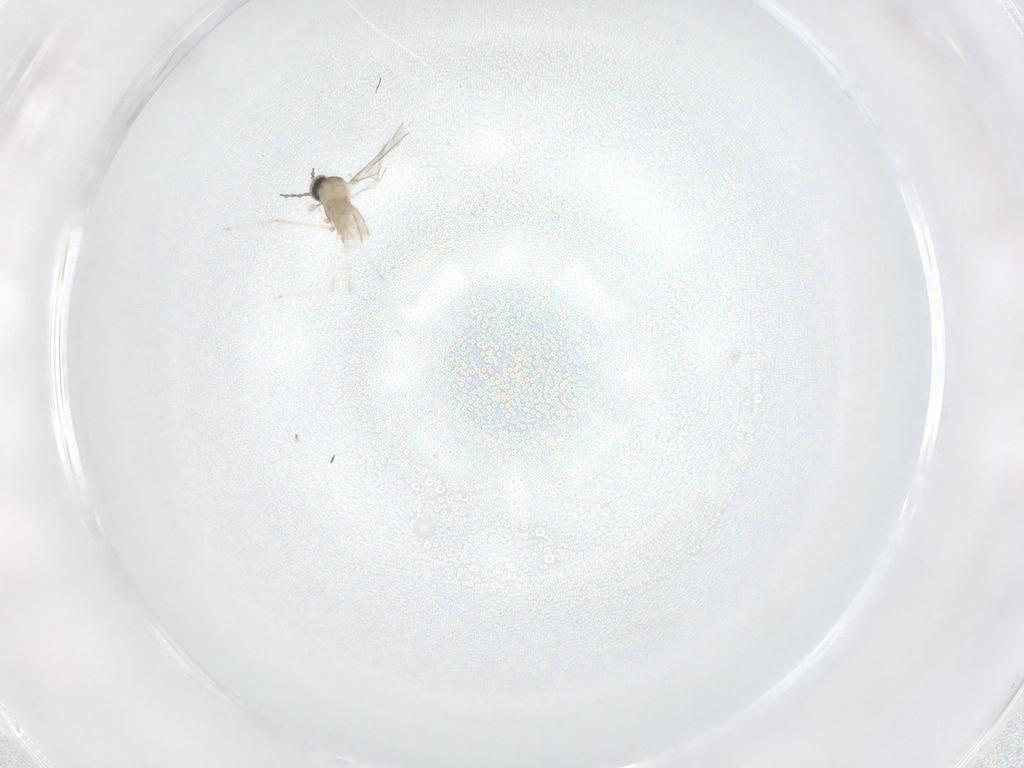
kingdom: Animalia
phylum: Arthropoda
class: Insecta
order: Diptera
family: Cecidomyiidae
